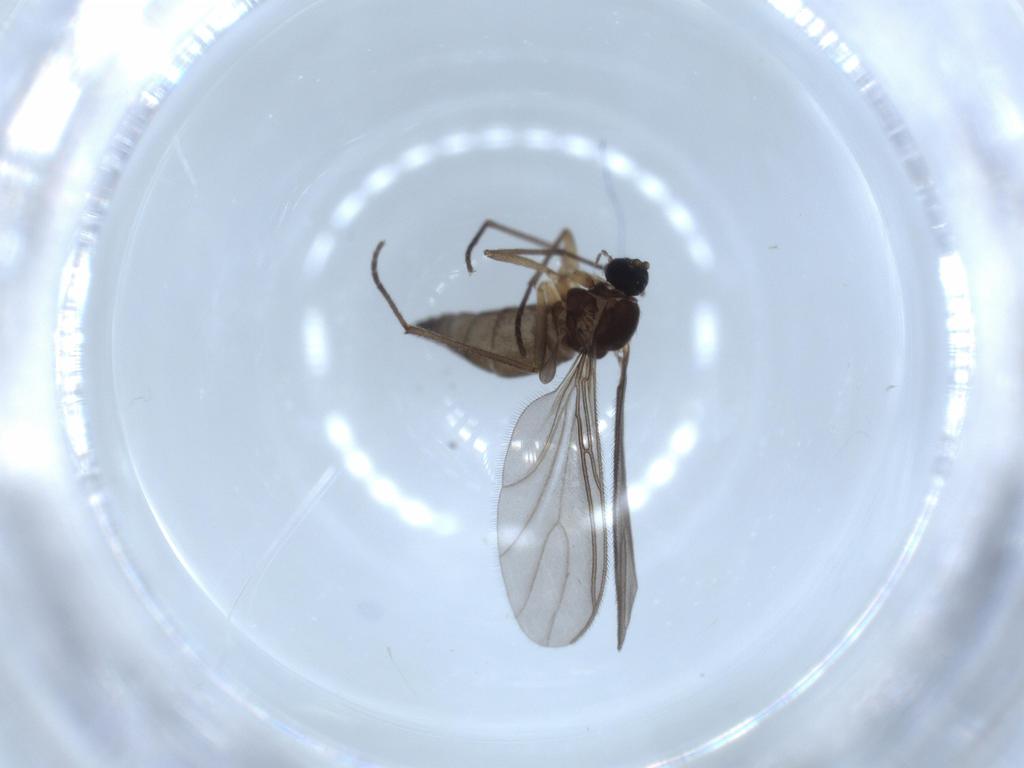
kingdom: Animalia
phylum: Arthropoda
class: Insecta
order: Diptera
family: Sciaridae
